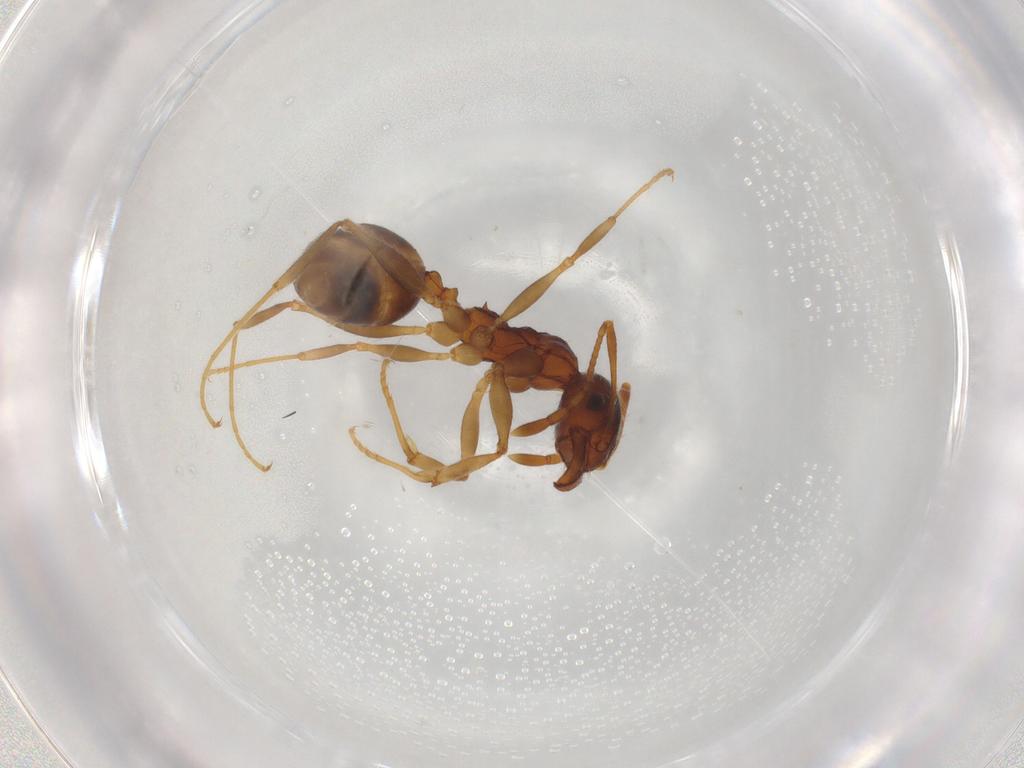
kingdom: Animalia
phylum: Arthropoda
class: Insecta
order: Hymenoptera
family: Formicidae
